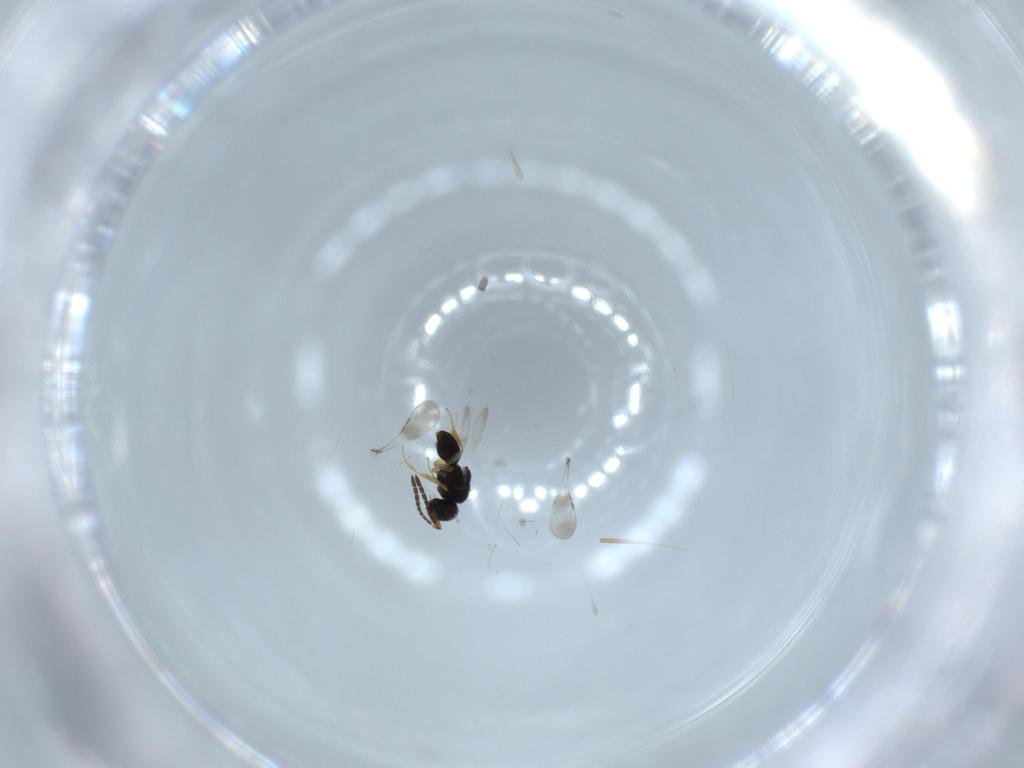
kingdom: Animalia
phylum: Arthropoda
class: Insecta
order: Hymenoptera
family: Ceraphronidae
